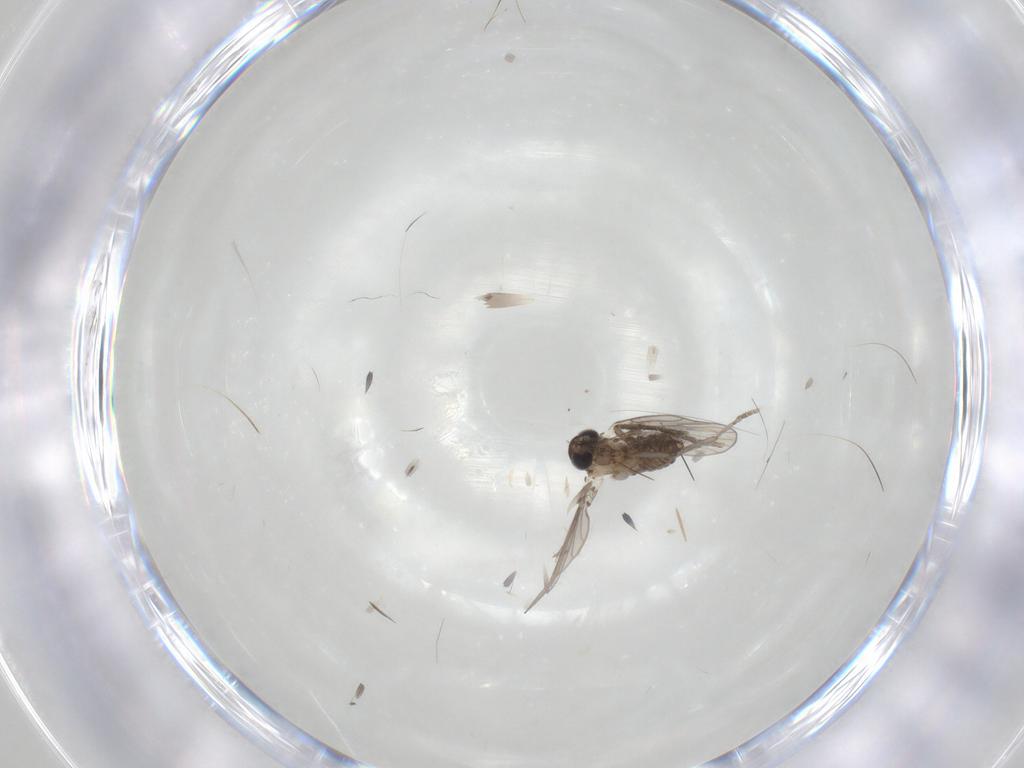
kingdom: Animalia
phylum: Arthropoda
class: Insecta
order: Diptera
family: Psychodidae
